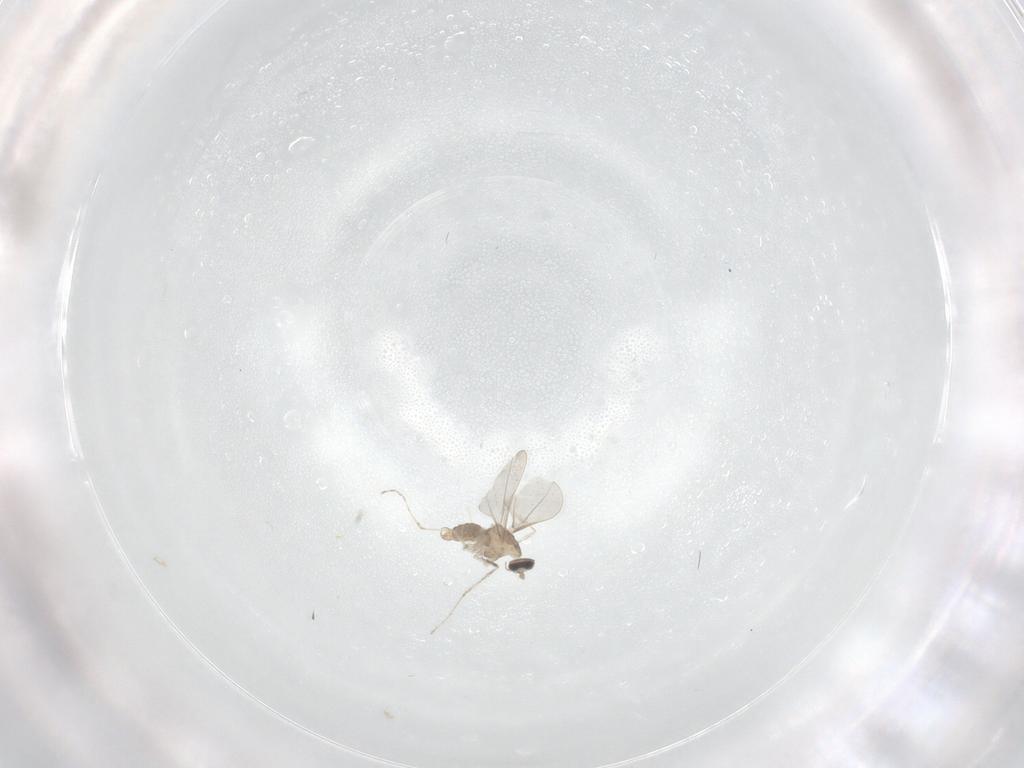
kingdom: Animalia
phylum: Arthropoda
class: Insecta
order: Diptera
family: Cecidomyiidae
